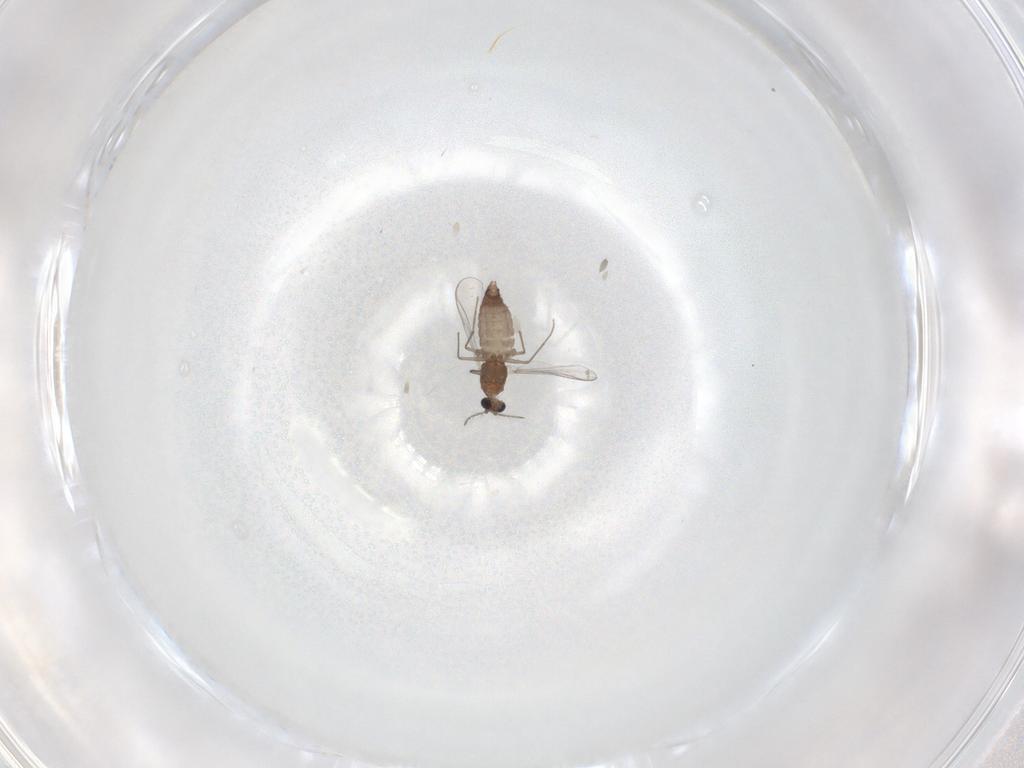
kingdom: Animalia
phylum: Arthropoda
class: Insecta
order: Diptera
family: Chironomidae
